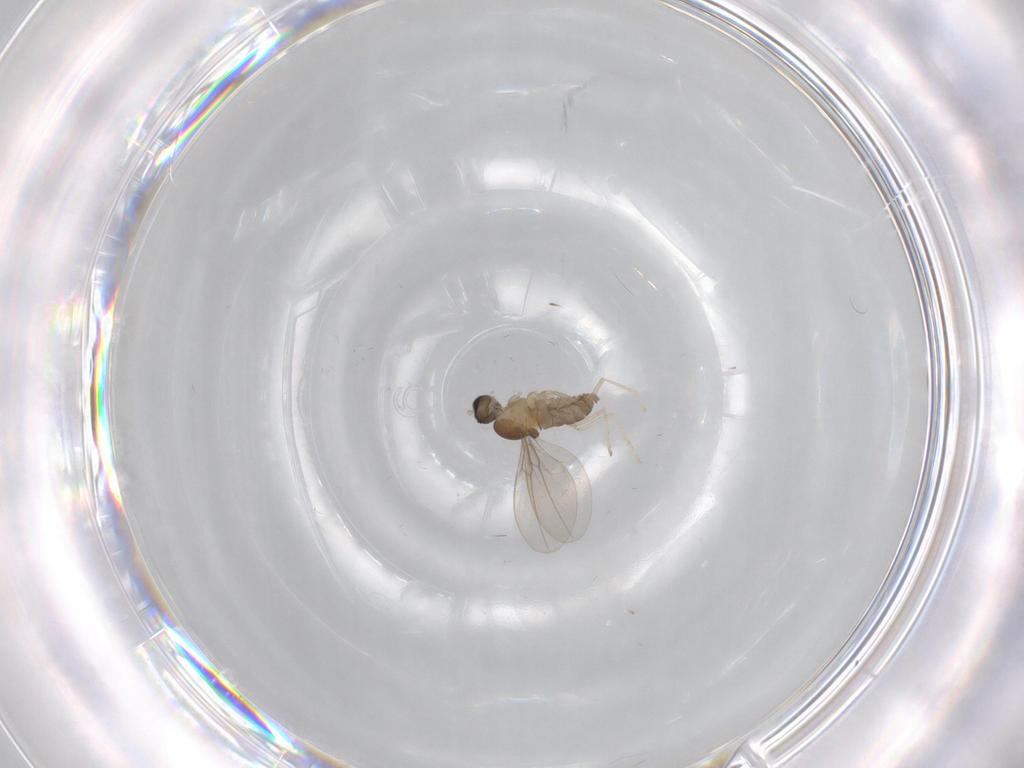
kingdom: Animalia
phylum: Arthropoda
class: Insecta
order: Diptera
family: Cecidomyiidae
